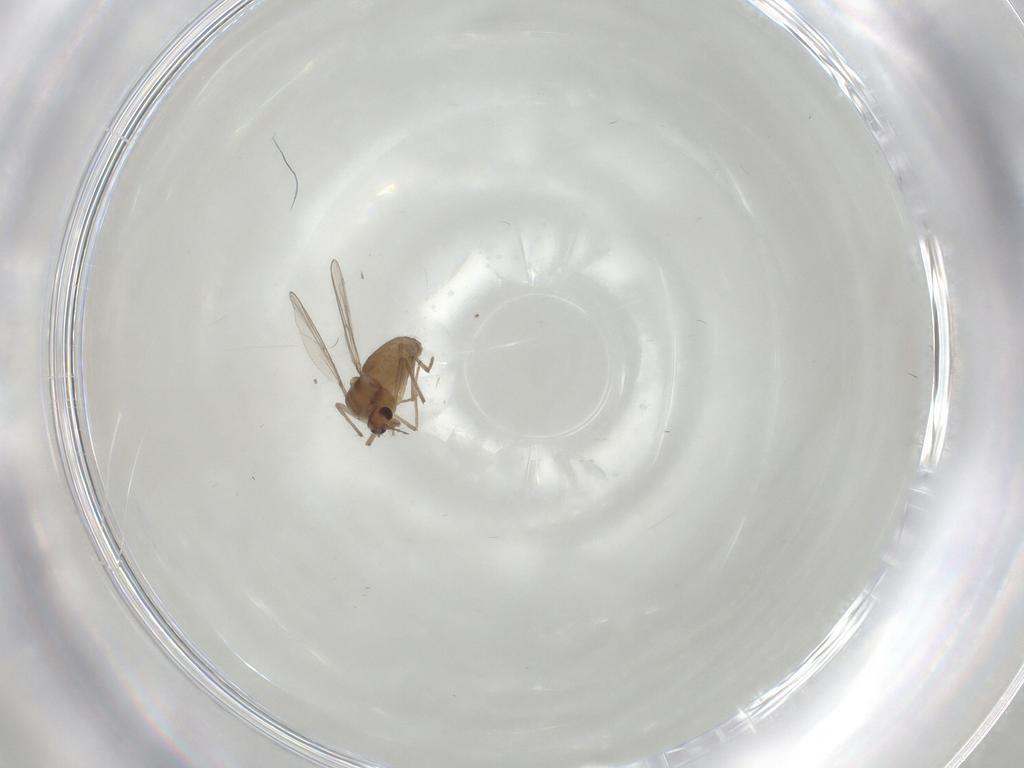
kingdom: Animalia
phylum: Arthropoda
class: Insecta
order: Diptera
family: Chironomidae
